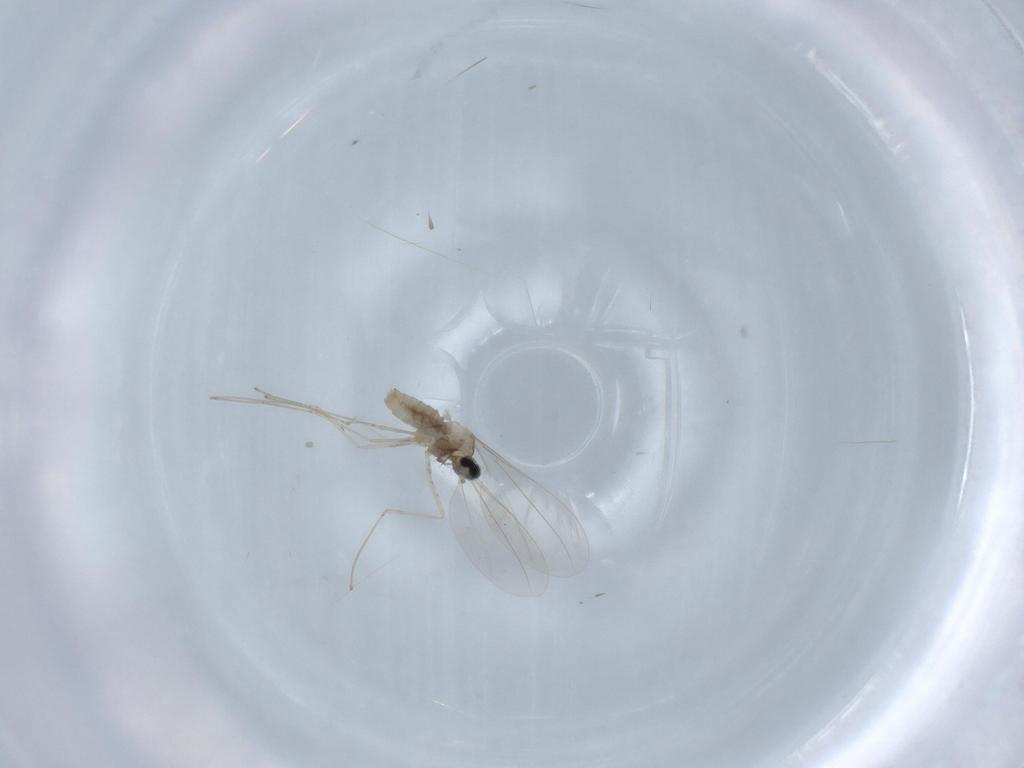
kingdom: Animalia
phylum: Arthropoda
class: Insecta
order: Diptera
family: Cecidomyiidae
